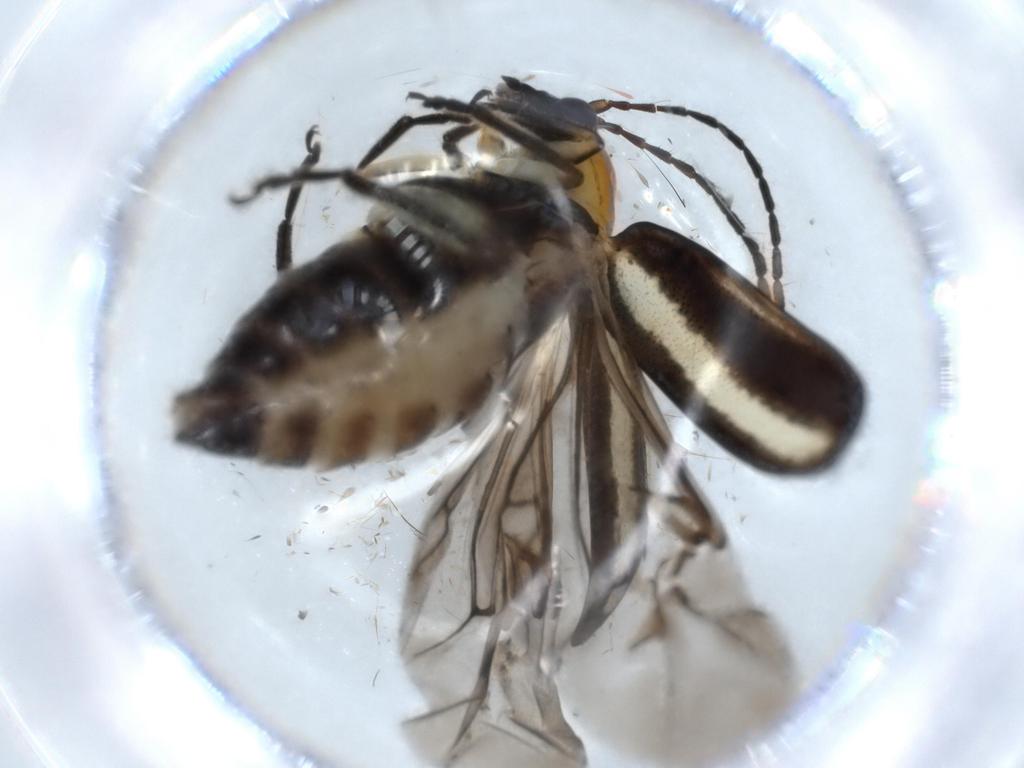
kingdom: Animalia
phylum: Arthropoda
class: Insecta
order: Coleoptera
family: Chrysomelidae
